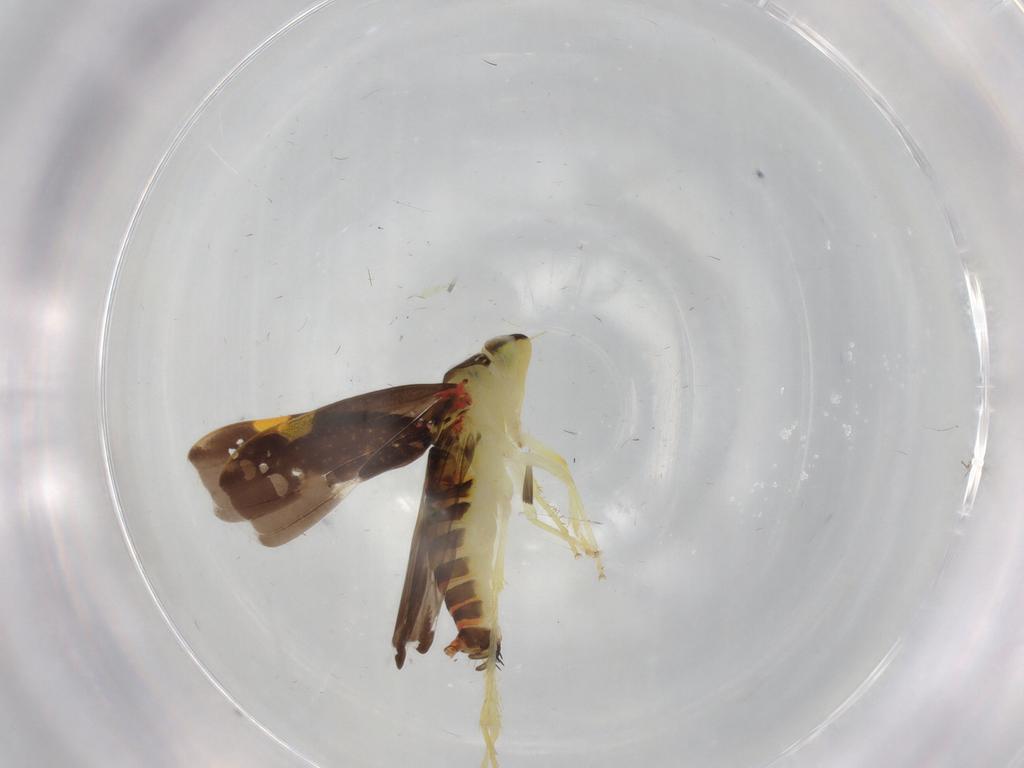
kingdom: Animalia
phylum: Arthropoda
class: Insecta
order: Hemiptera
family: Cicadellidae
